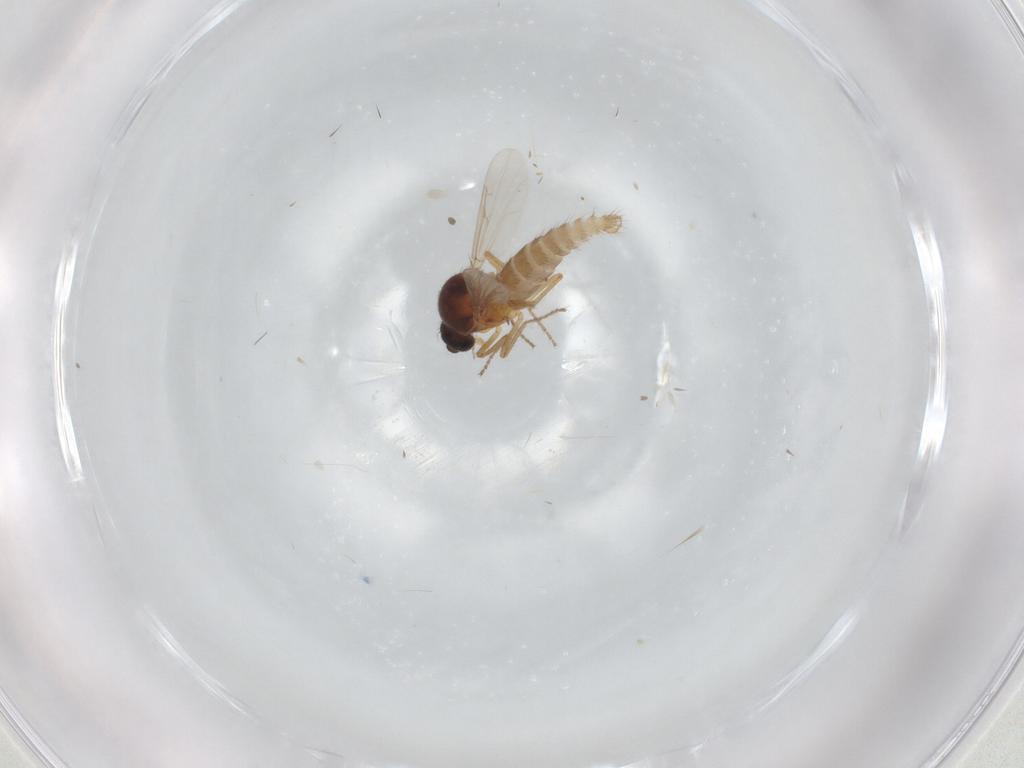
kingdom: Animalia
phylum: Arthropoda
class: Insecta
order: Diptera
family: Ceratopogonidae
